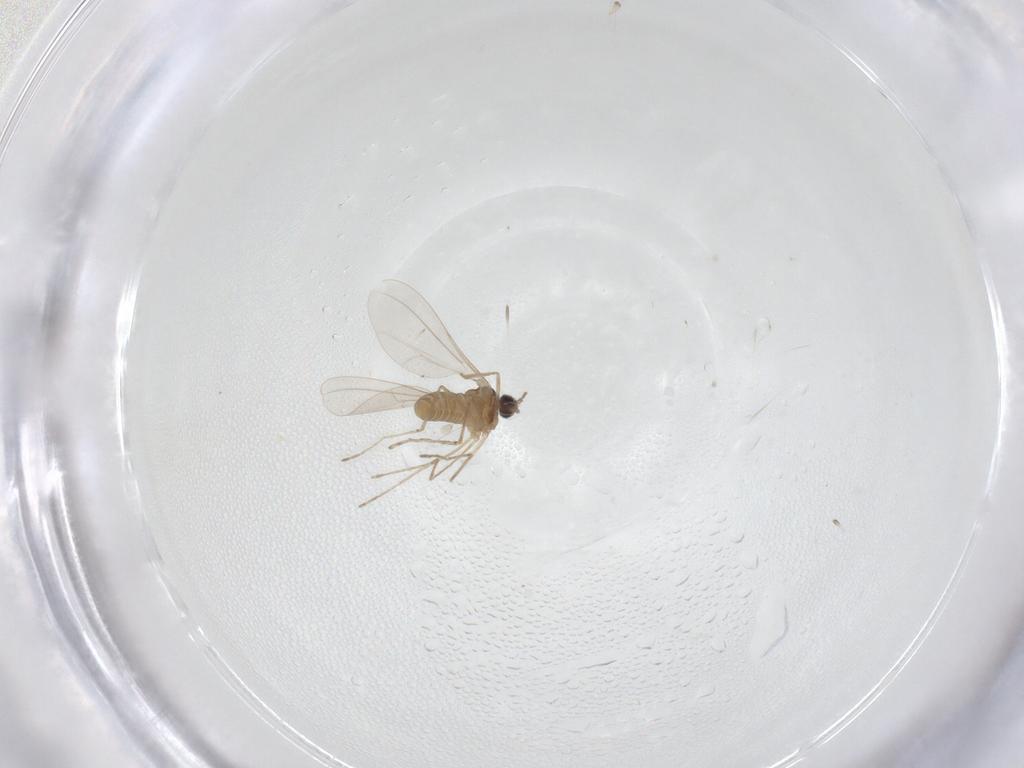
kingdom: Animalia
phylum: Arthropoda
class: Insecta
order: Diptera
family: Cecidomyiidae
